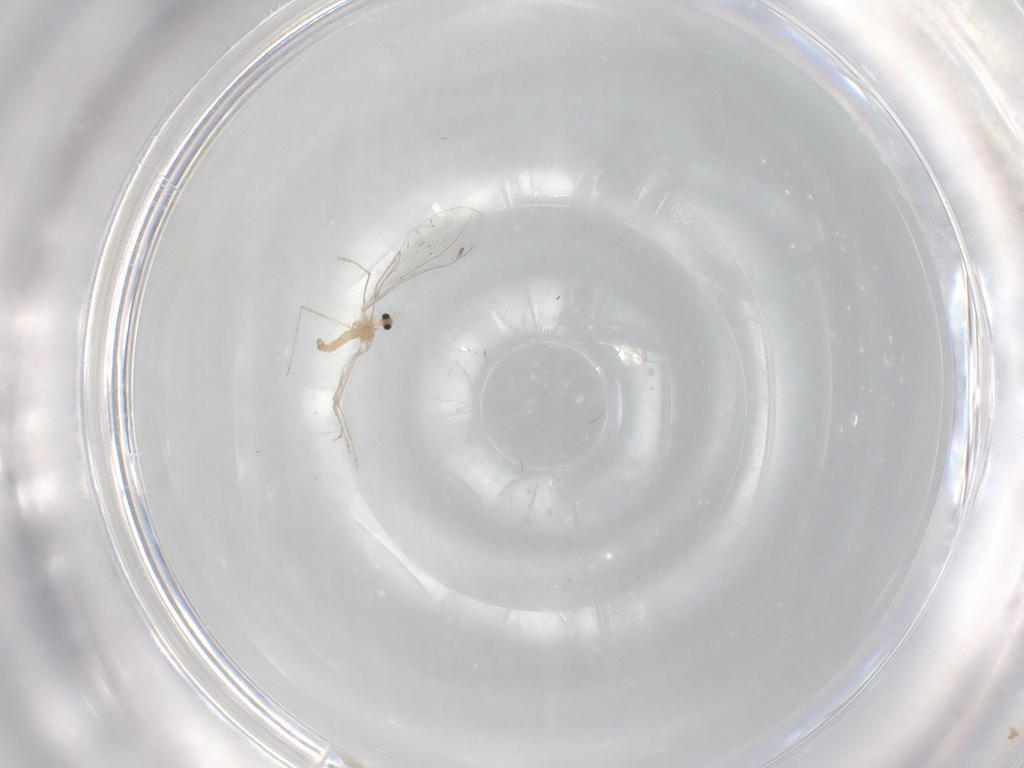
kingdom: Animalia
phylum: Arthropoda
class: Insecta
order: Diptera
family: Cecidomyiidae
